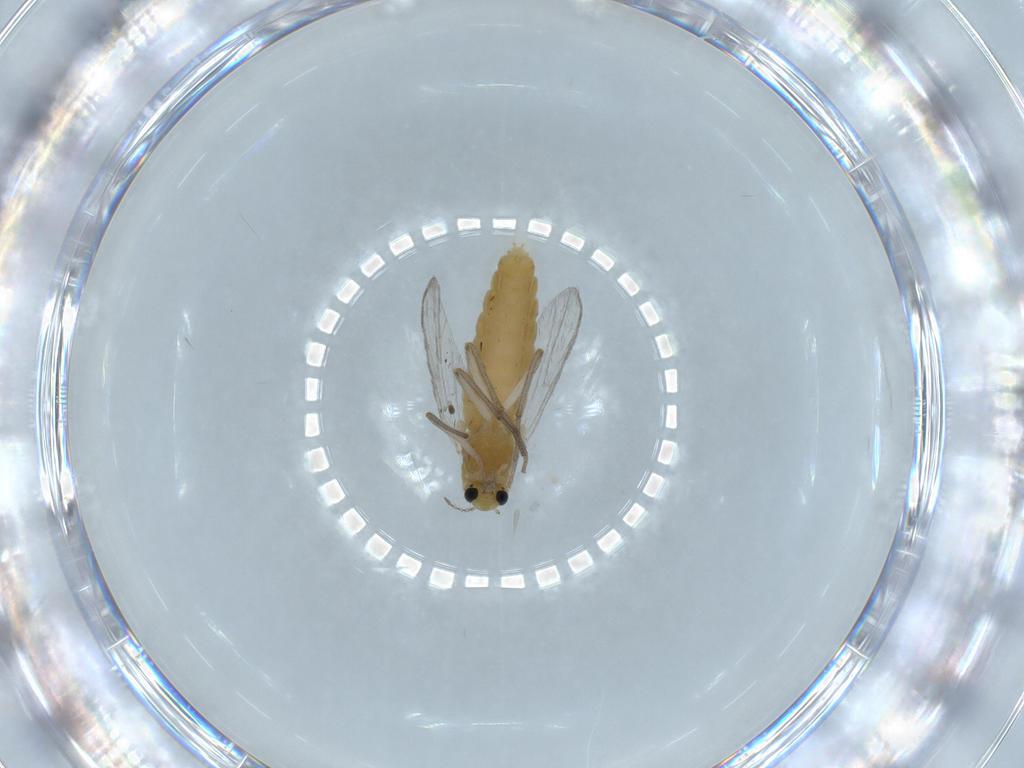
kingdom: Animalia
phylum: Arthropoda
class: Insecta
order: Diptera
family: Chironomidae
